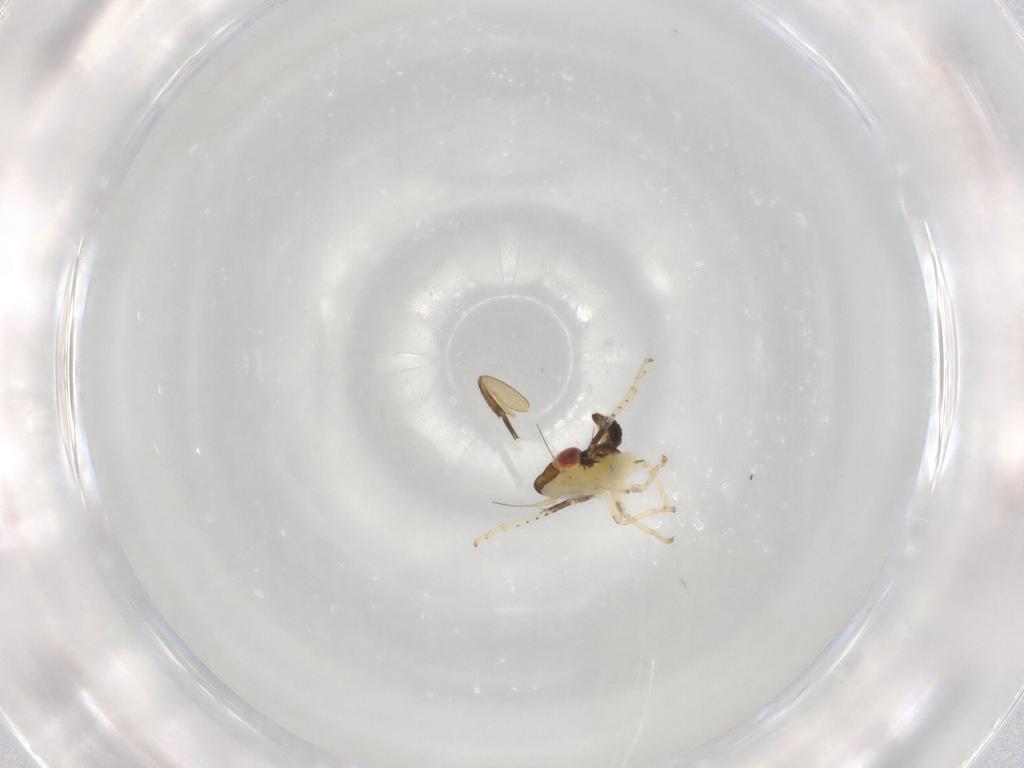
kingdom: Animalia
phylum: Arthropoda
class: Insecta
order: Hemiptera
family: Cicadellidae
